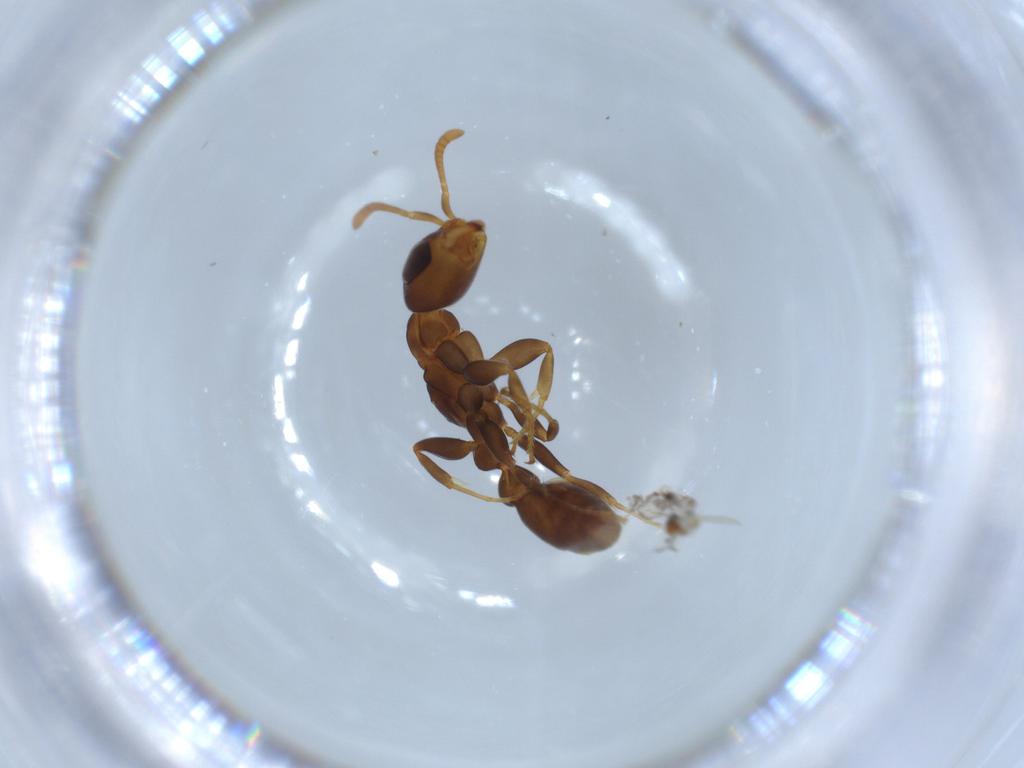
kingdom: Animalia
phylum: Arthropoda
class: Insecta
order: Hymenoptera
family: Formicidae
